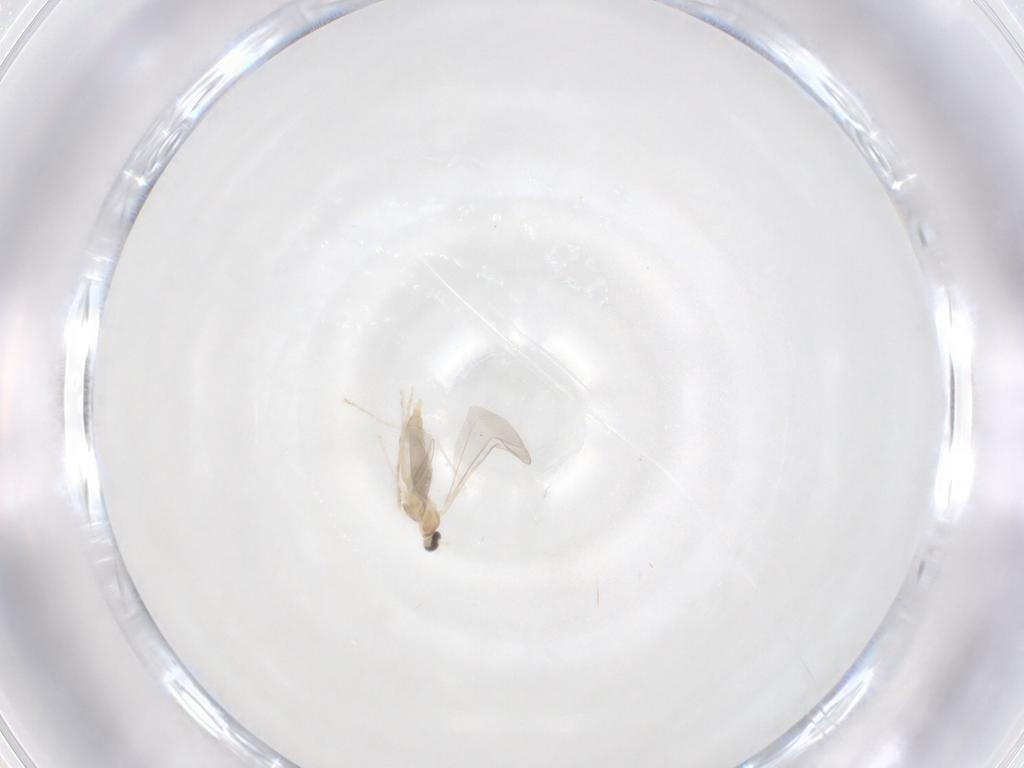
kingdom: Animalia
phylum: Arthropoda
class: Insecta
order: Diptera
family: Cecidomyiidae
